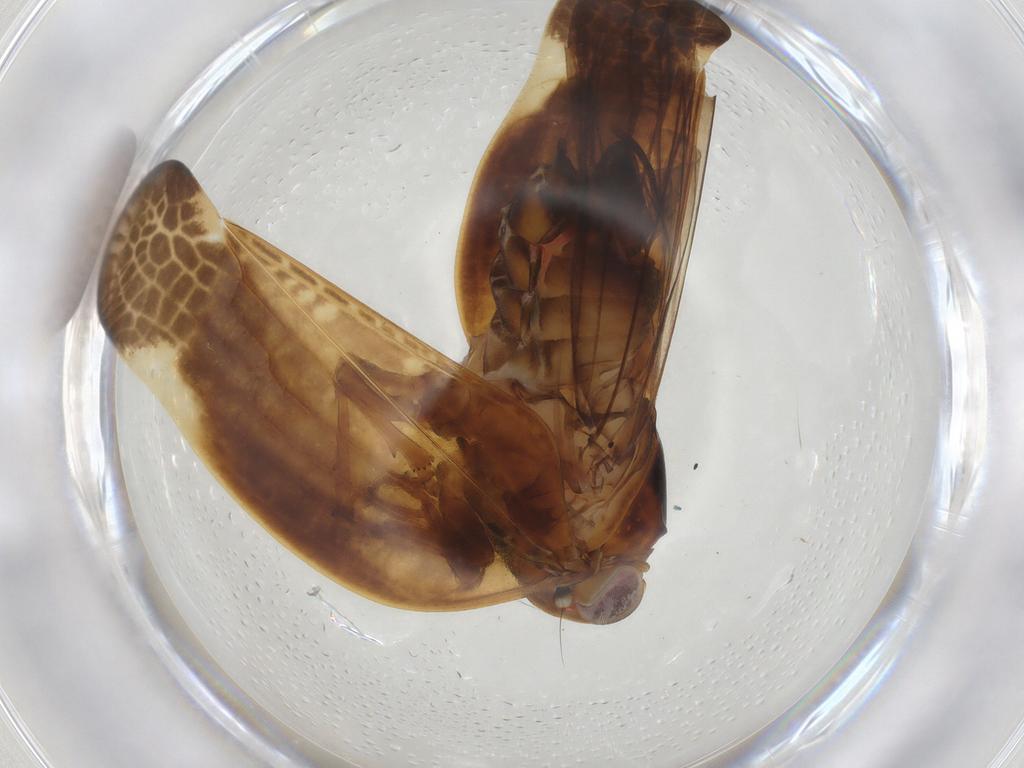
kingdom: Animalia
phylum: Arthropoda
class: Insecta
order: Hemiptera
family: Nogodinidae
